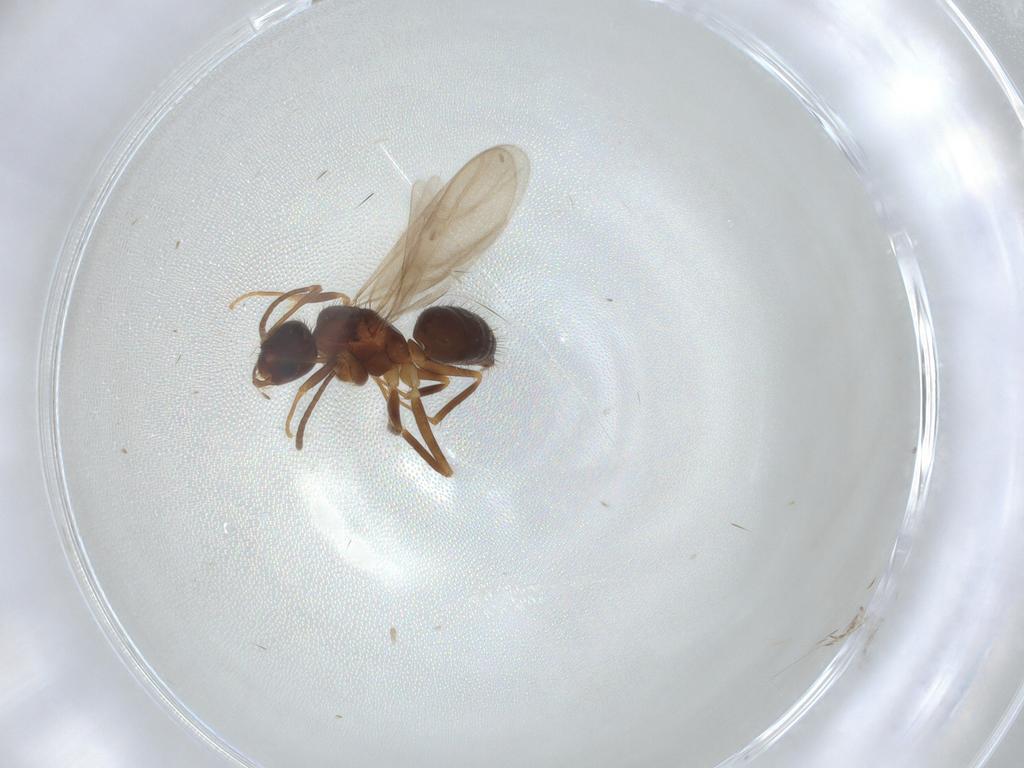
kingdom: Animalia
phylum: Arthropoda
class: Insecta
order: Hymenoptera
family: Formicidae
